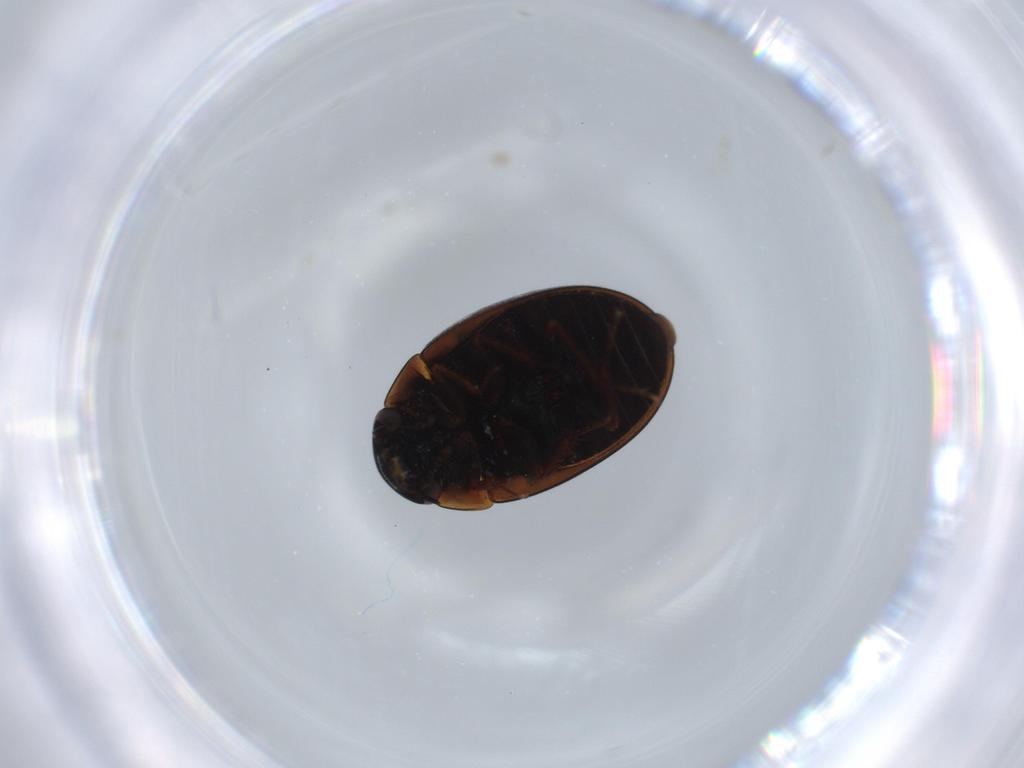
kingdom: Animalia
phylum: Arthropoda
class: Insecta
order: Coleoptera
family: Hydrophilidae
